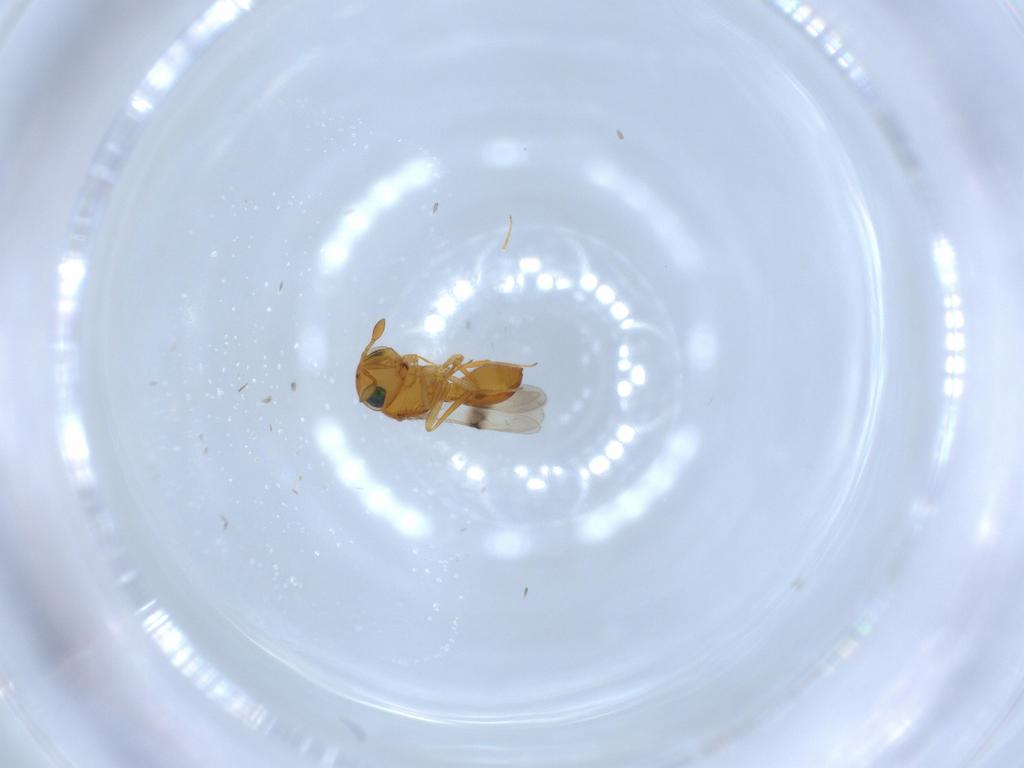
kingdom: Animalia
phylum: Arthropoda
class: Insecta
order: Hymenoptera
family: Scelionidae
